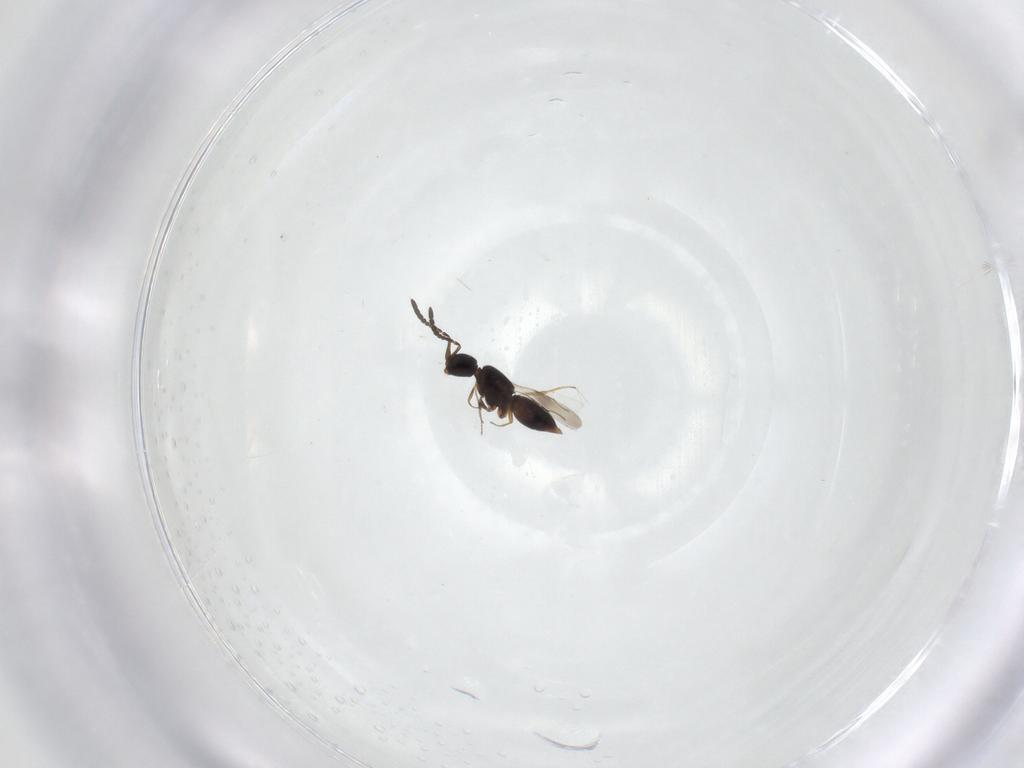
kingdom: Animalia
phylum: Arthropoda
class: Insecta
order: Hymenoptera
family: Ceraphronidae
